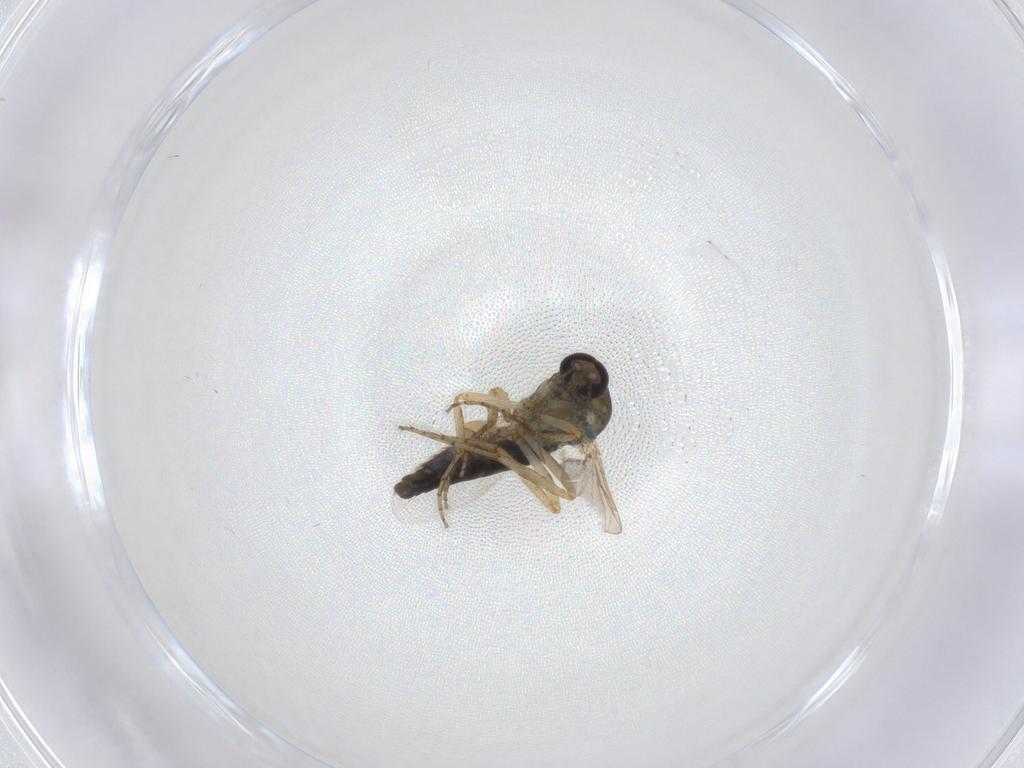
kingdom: Animalia
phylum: Arthropoda
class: Insecta
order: Diptera
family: Ceratopogonidae
